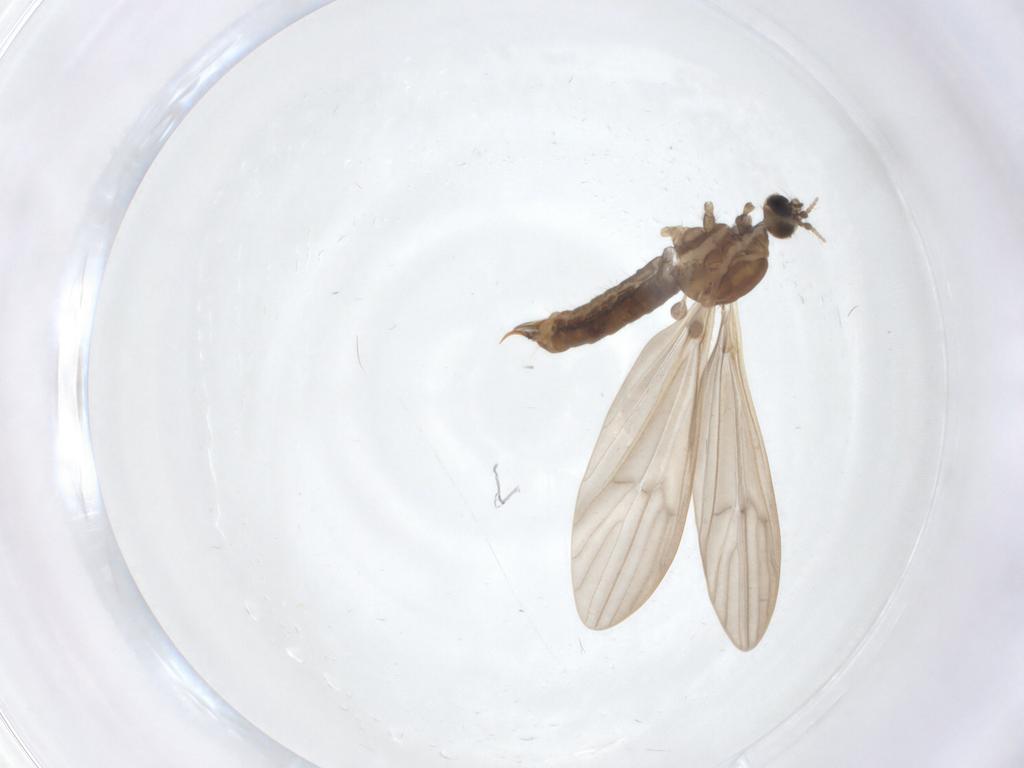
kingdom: Animalia
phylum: Arthropoda
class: Insecta
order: Diptera
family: Limoniidae
